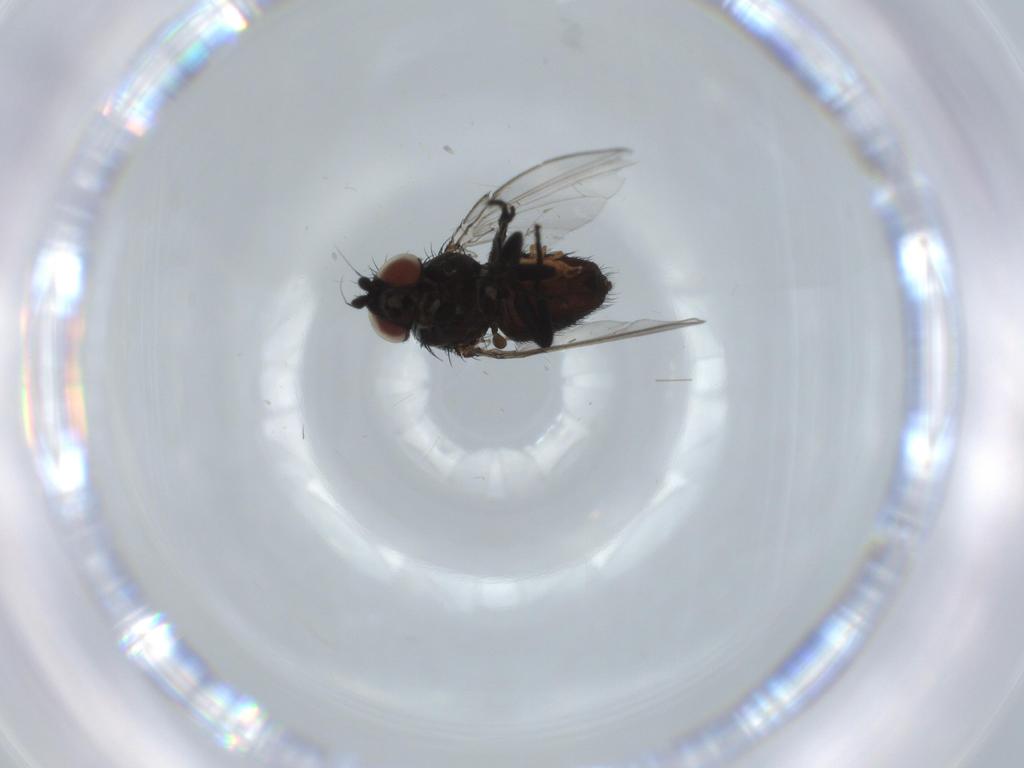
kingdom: Animalia
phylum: Arthropoda
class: Insecta
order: Diptera
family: Milichiidae
